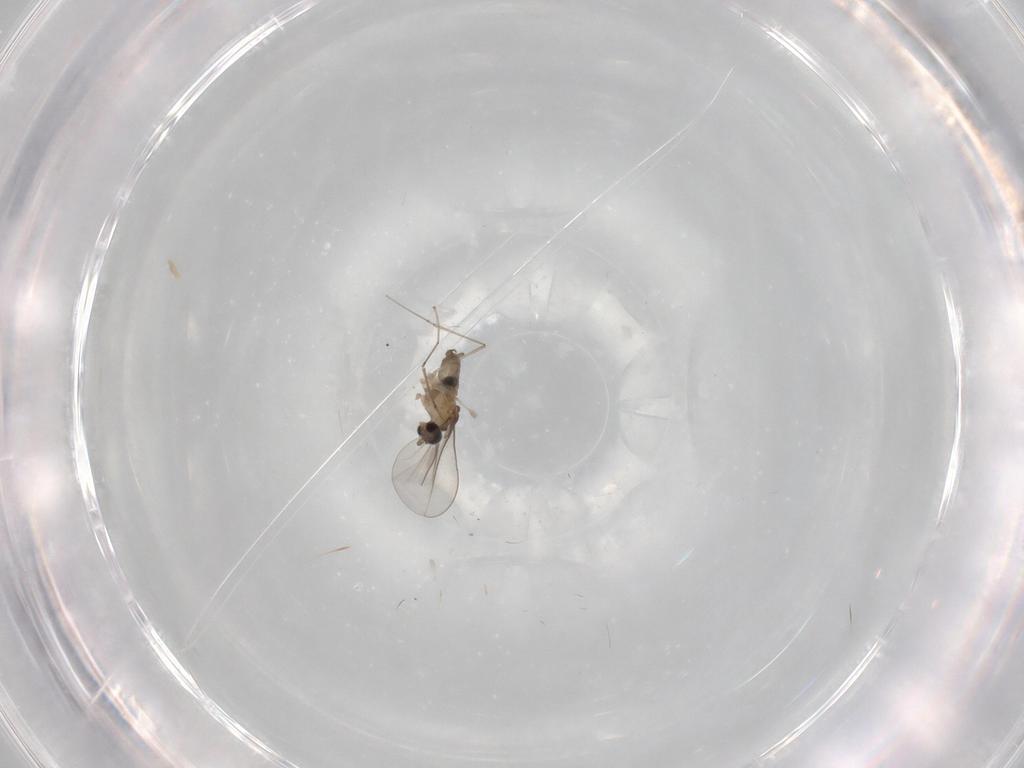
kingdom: Animalia
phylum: Arthropoda
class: Insecta
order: Diptera
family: Cecidomyiidae
